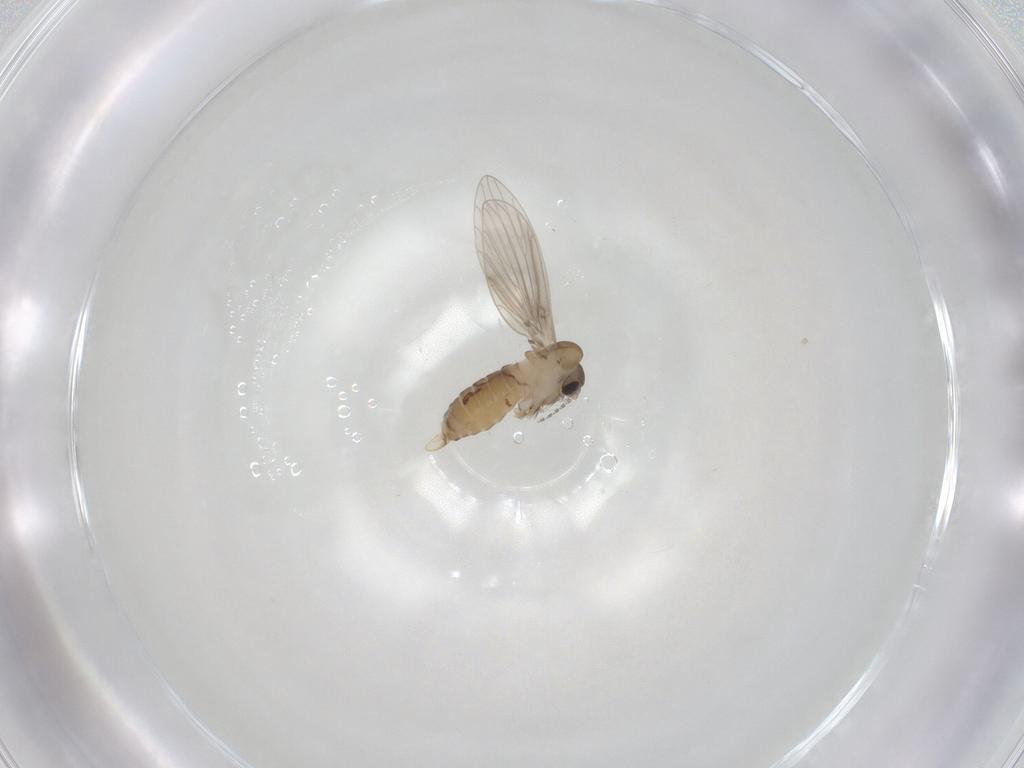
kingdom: Animalia
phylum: Arthropoda
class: Insecta
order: Diptera
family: Psychodidae
